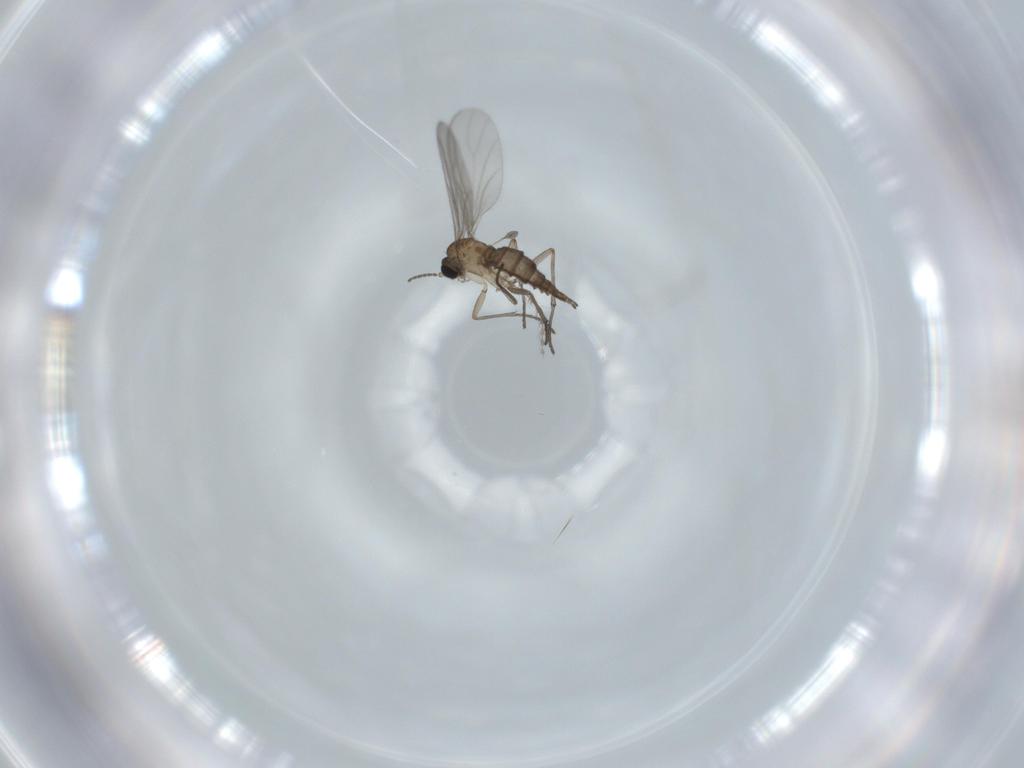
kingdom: Animalia
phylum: Arthropoda
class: Insecta
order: Diptera
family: Sciaridae
